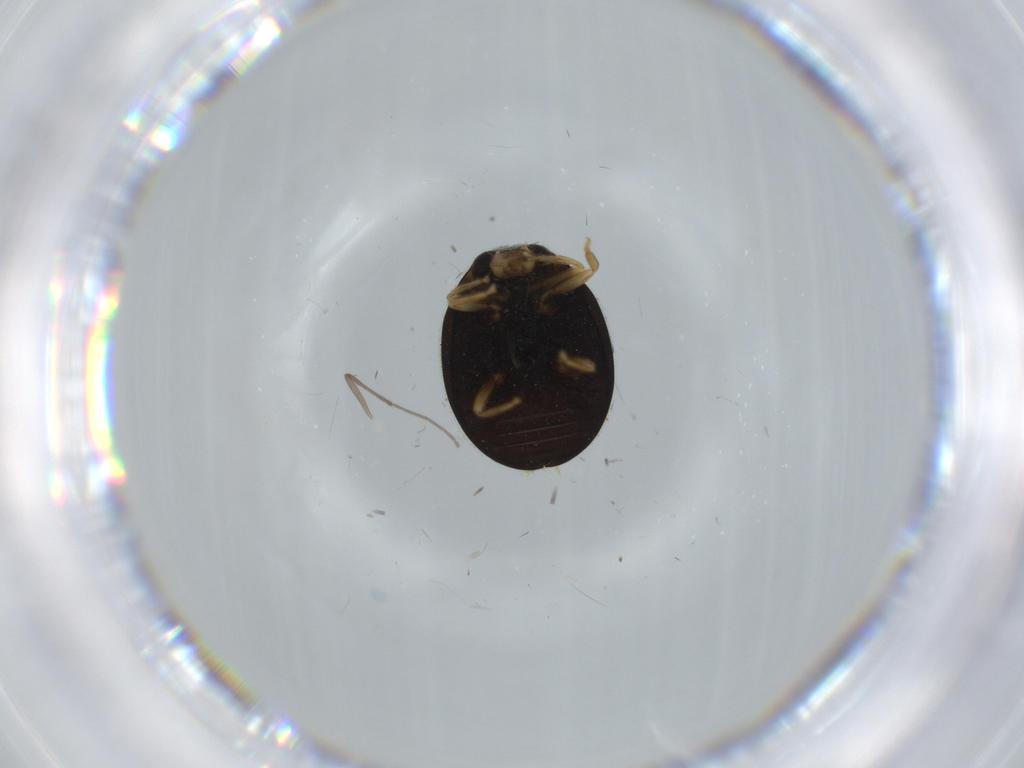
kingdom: Animalia
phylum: Arthropoda
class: Insecta
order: Coleoptera
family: Coccinellidae
